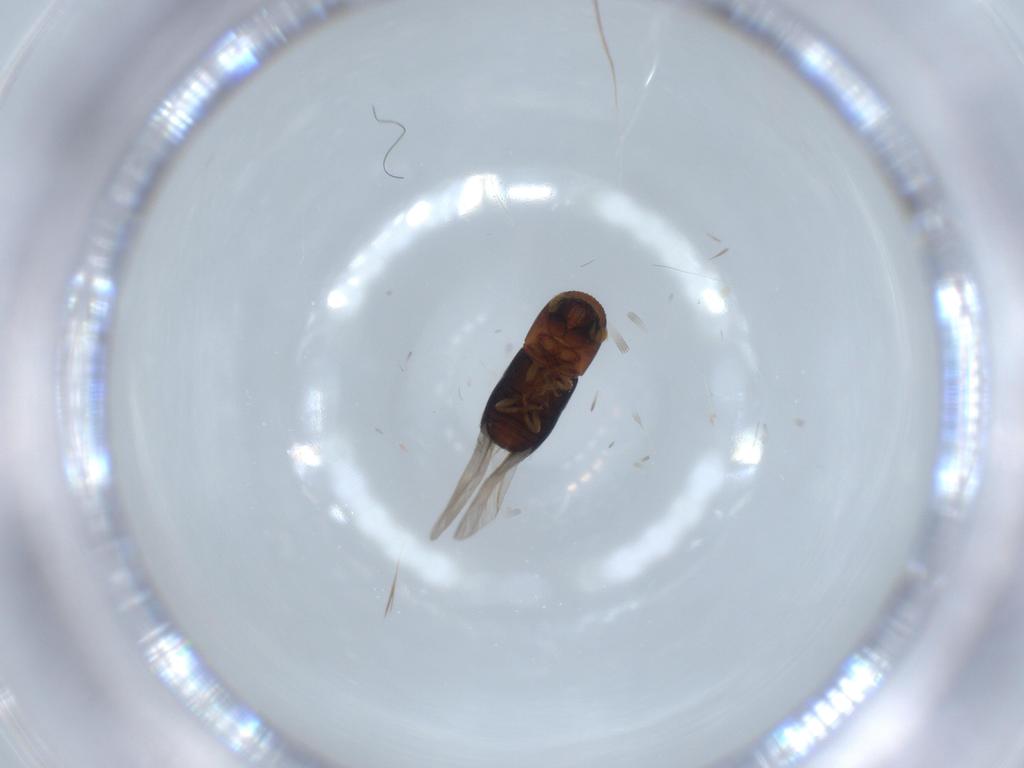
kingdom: Animalia
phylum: Arthropoda
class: Insecta
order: Coleoptera
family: Curculionidae
